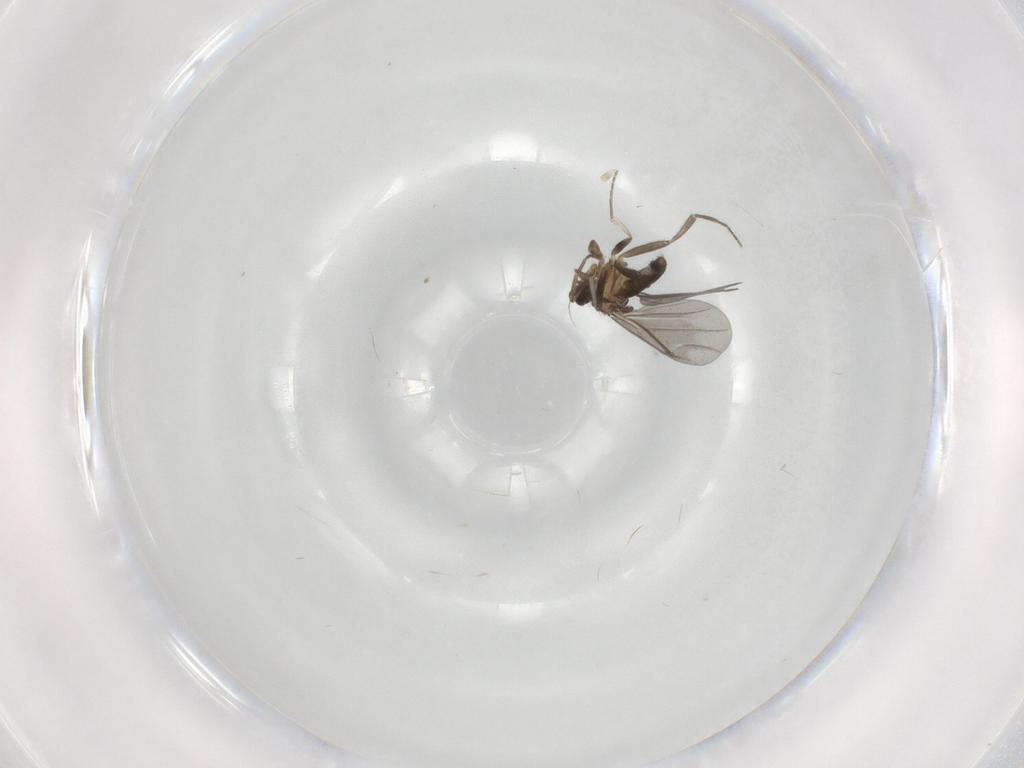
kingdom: Animalia
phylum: Arthropoda
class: Insecta
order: Diptera
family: Phoridae
